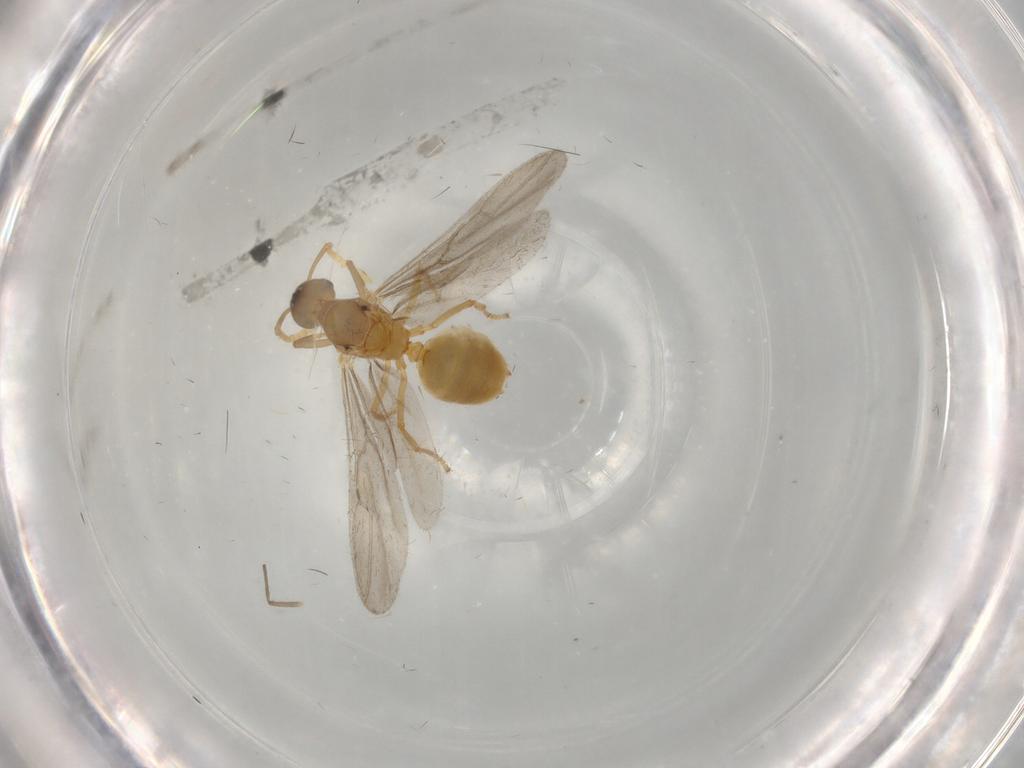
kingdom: Animalia
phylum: Arthropoda
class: Insecta
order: Hymenoptera
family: Formicidae
